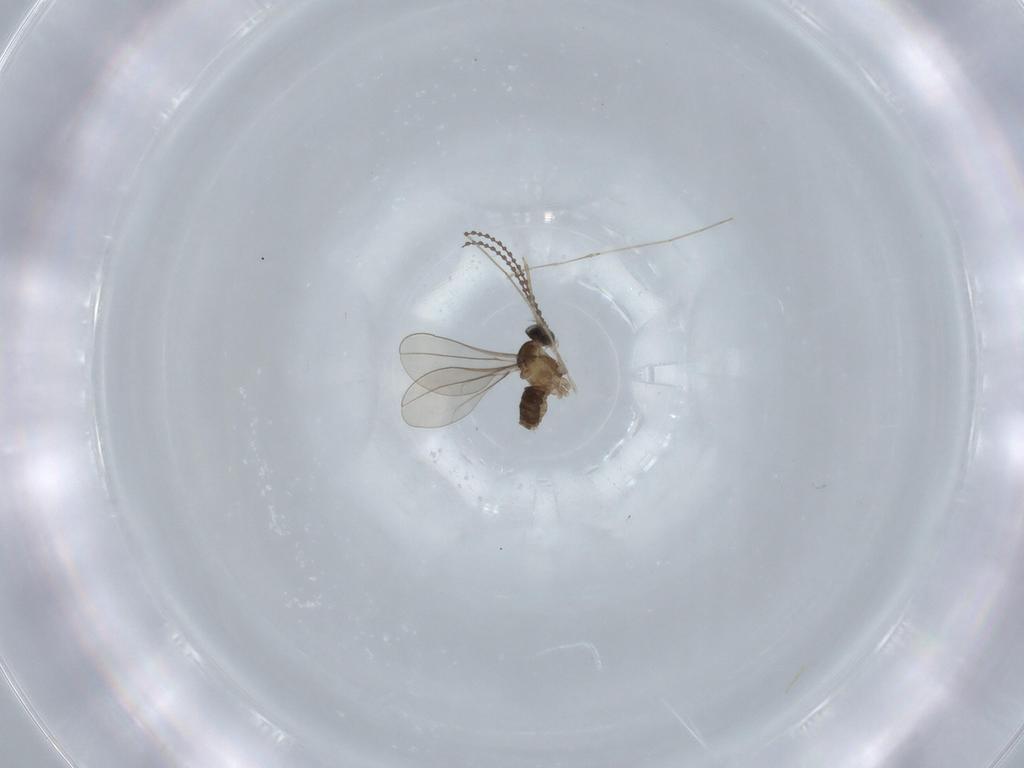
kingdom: Animalia
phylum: Arthropoda
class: Insecta
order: Diptera
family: Cecidomyiidae
